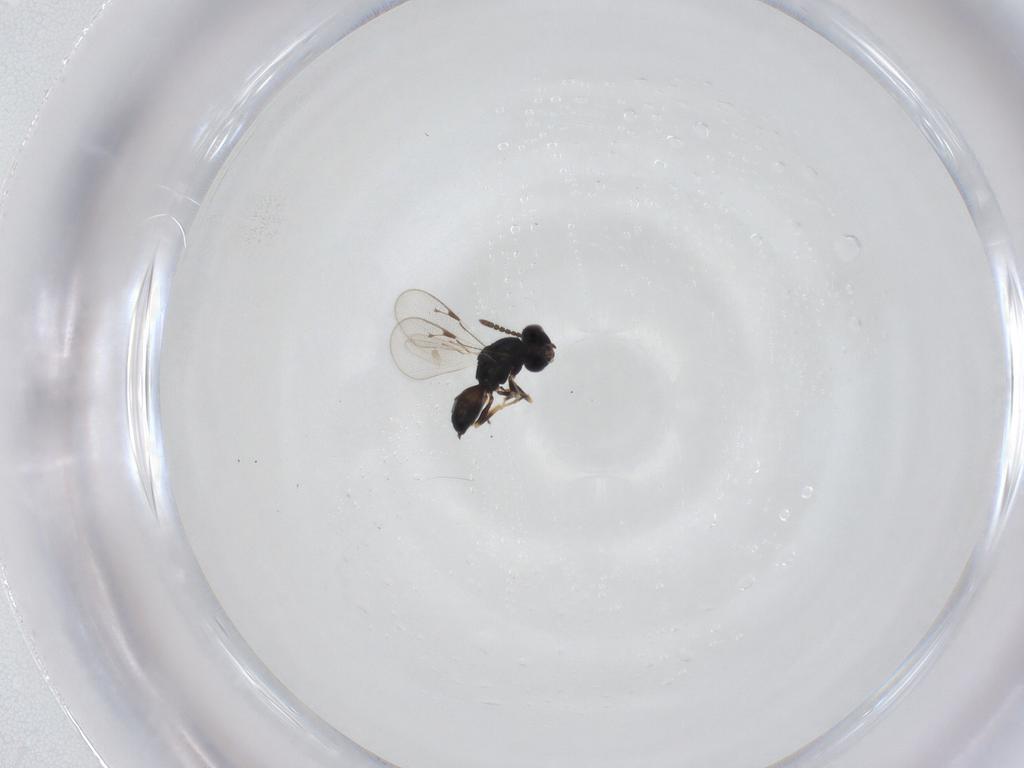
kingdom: Animalia
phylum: Arthropoda
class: Insecta
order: Hymenoptera
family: Pteromalidae
